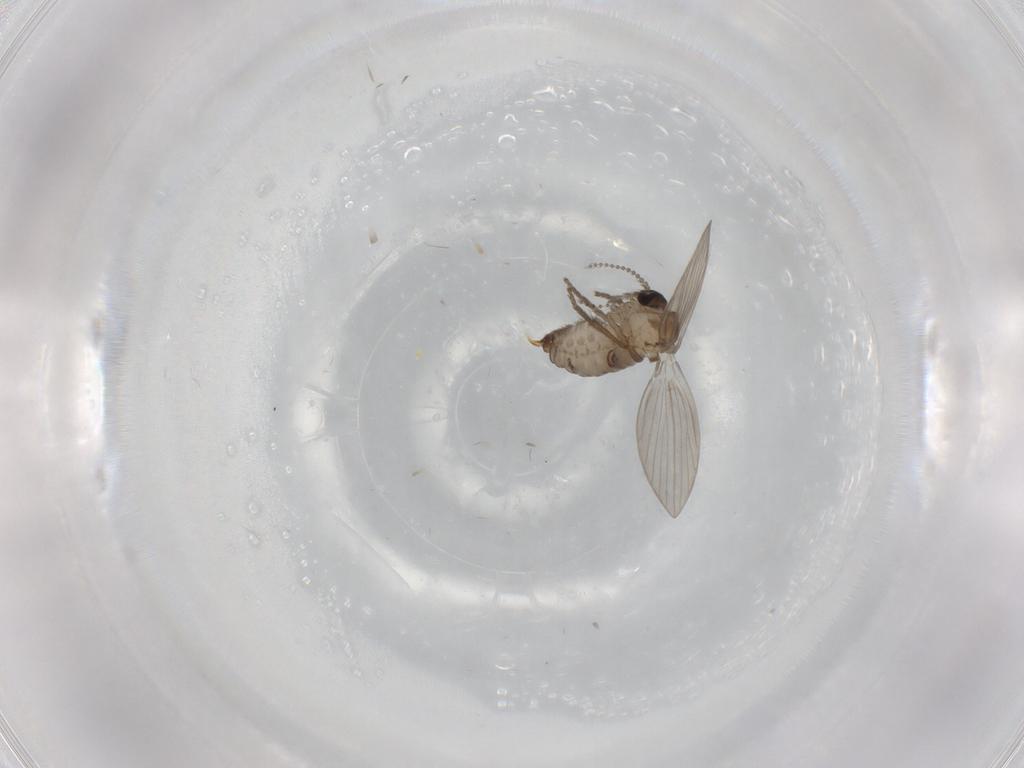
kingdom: Animalia
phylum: Arthropoda
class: Insecta
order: Diptera
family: Psychodidae
